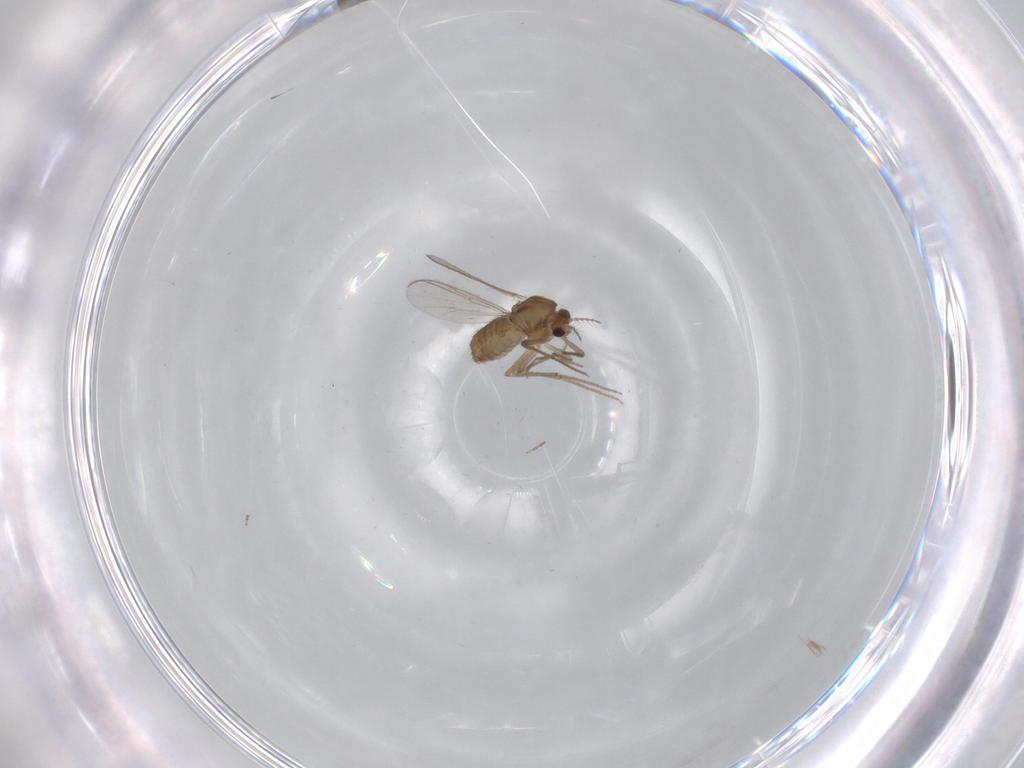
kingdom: Animalia
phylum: Arthropoda
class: Insecta
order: Diptera
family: Chironomidae
